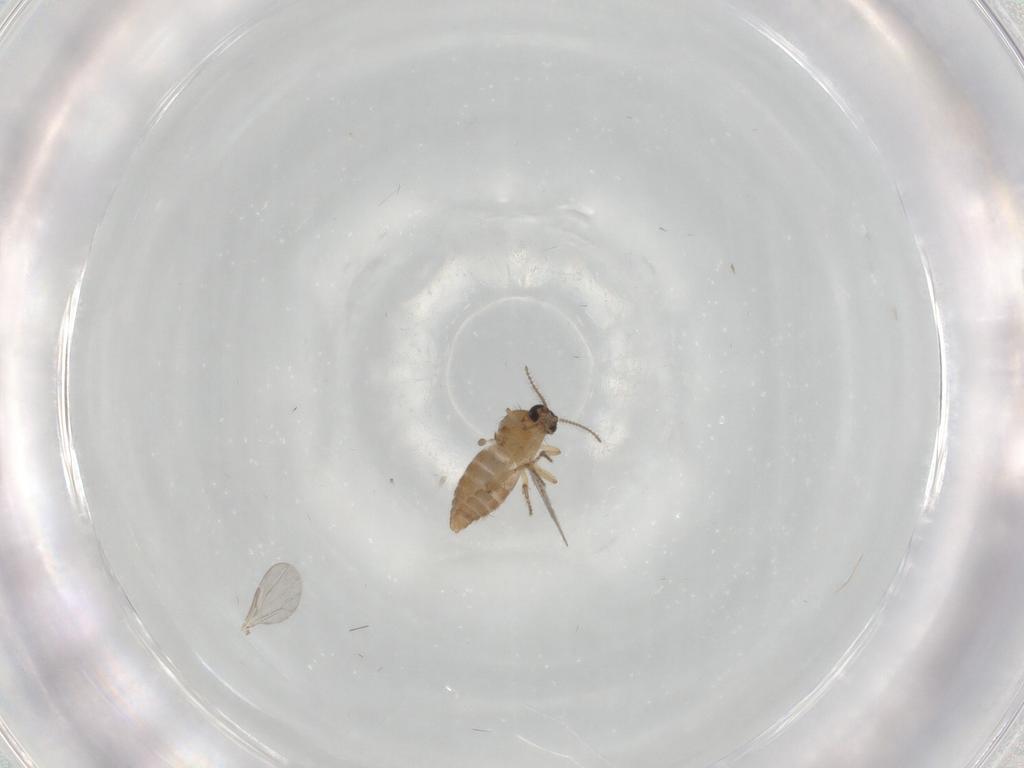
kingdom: Animalia
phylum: Arthropoda
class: Insecta
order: Diptera
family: Ceratopogonidae
